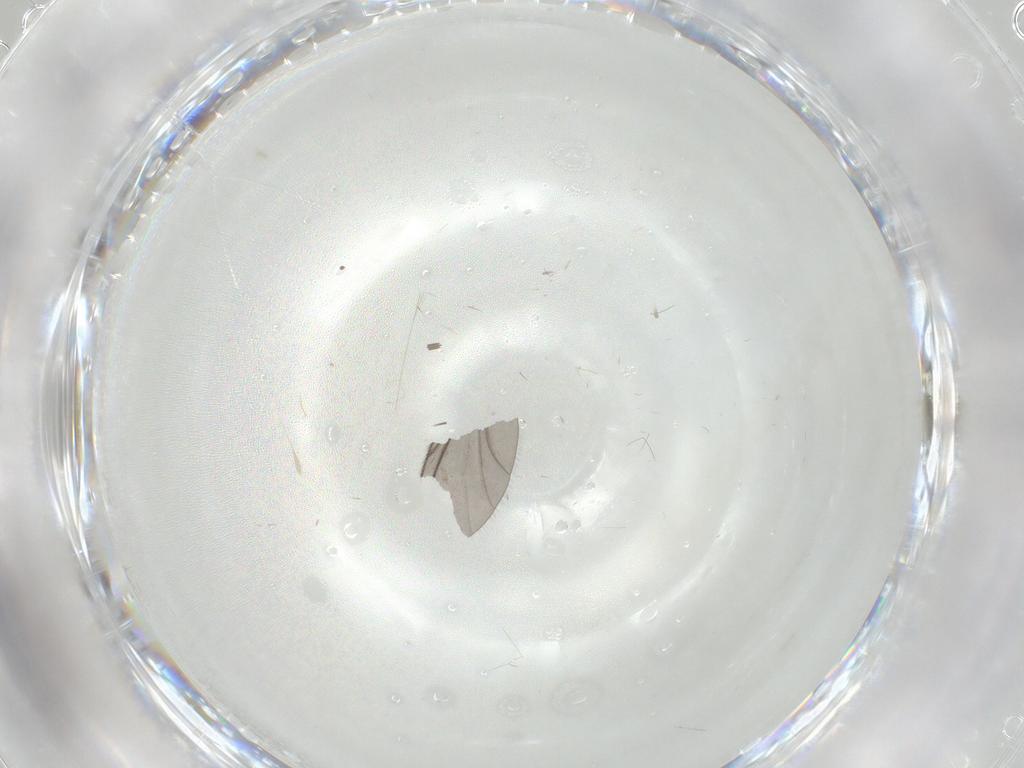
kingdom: Animalia
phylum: Arthropoda
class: Insecta
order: Diptera
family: Sciaridae
